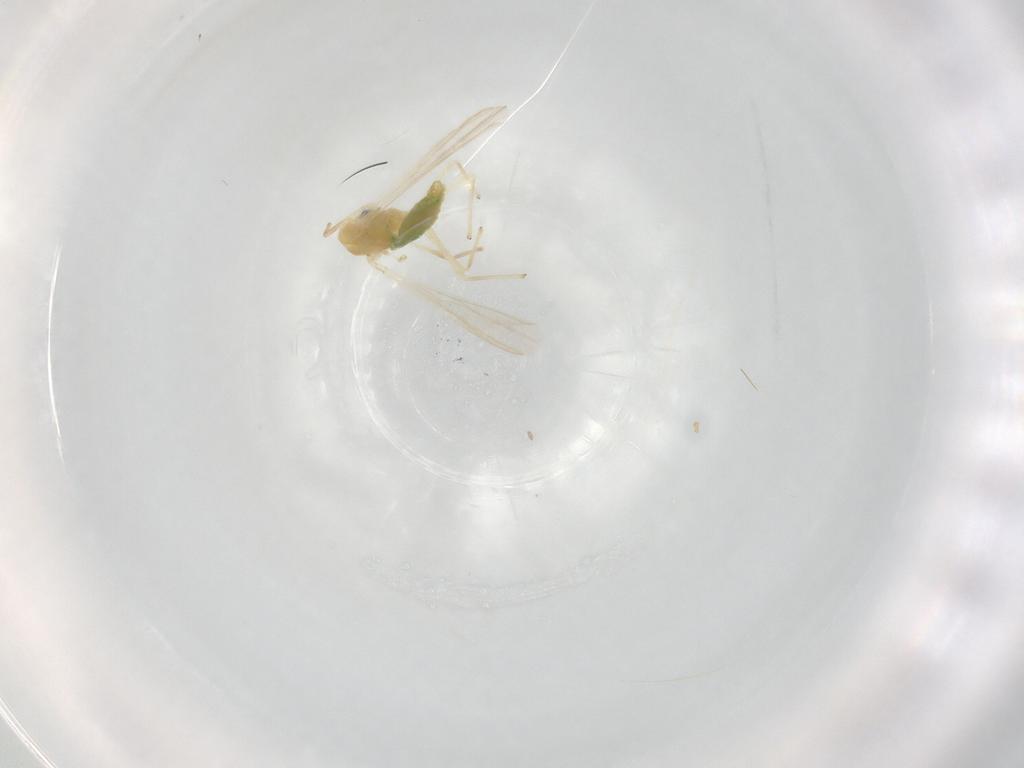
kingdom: Animalia
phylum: Arthropoda
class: Insecta
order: Diptera
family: Chironomidae
